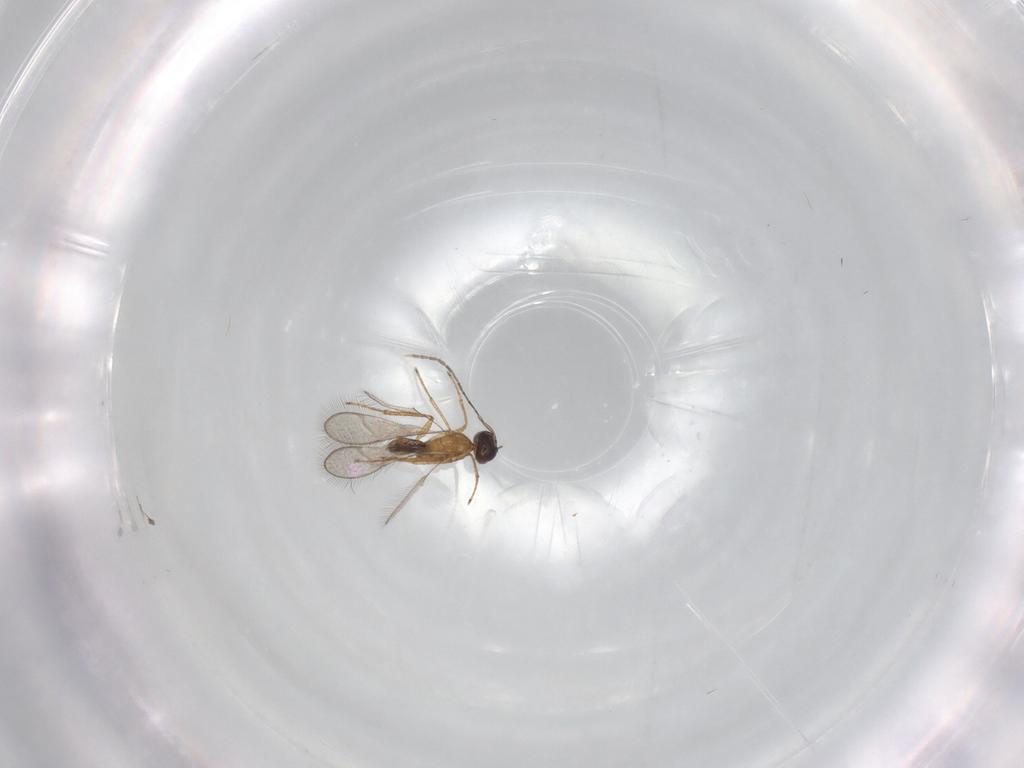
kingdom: Animalia
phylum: Arthropoda
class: Insecta
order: Hymenoptera
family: Mymaridae
